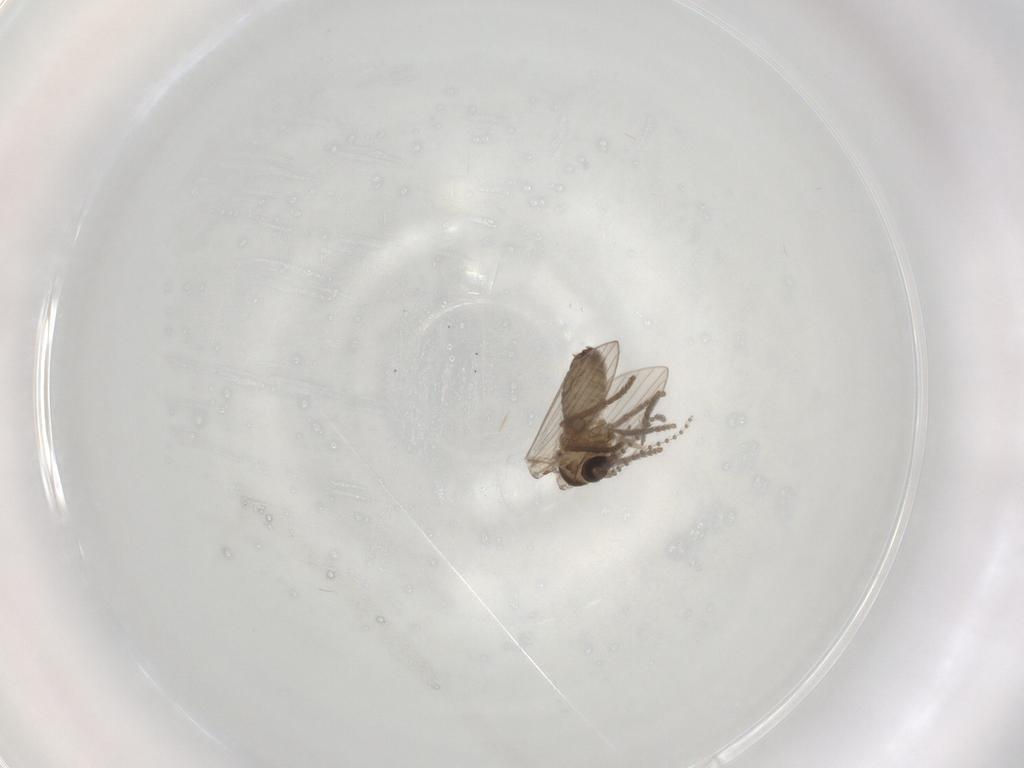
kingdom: Animalia
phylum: Arthropoda
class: Insecta
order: Diptera
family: Psychodidae
